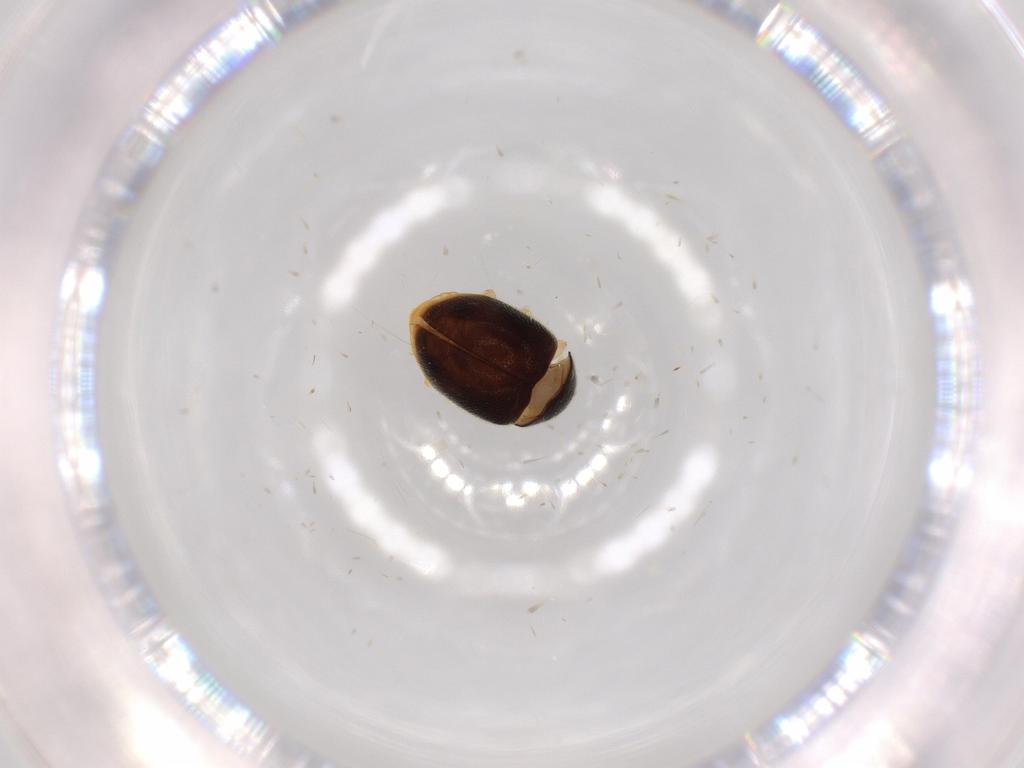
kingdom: Animalia
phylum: Arthropoda
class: Insecta
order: Coleoptera
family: Coccinellidae
